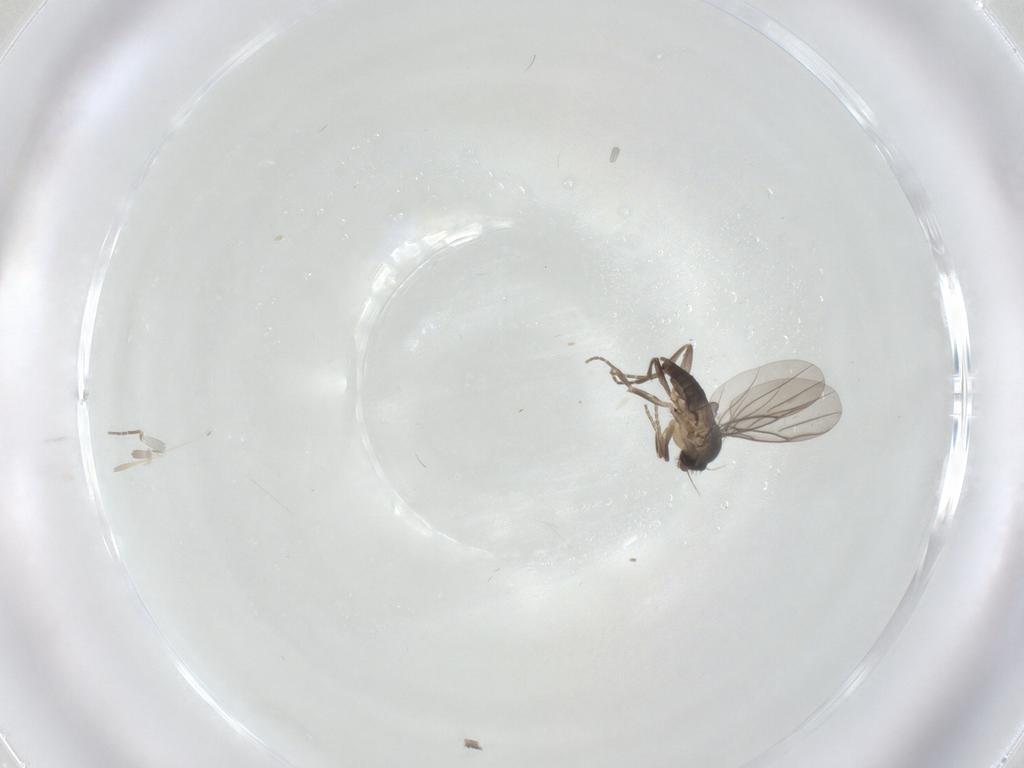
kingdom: Animalia
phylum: Arthropoda
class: Insecta
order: Diptera
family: Phoridae
